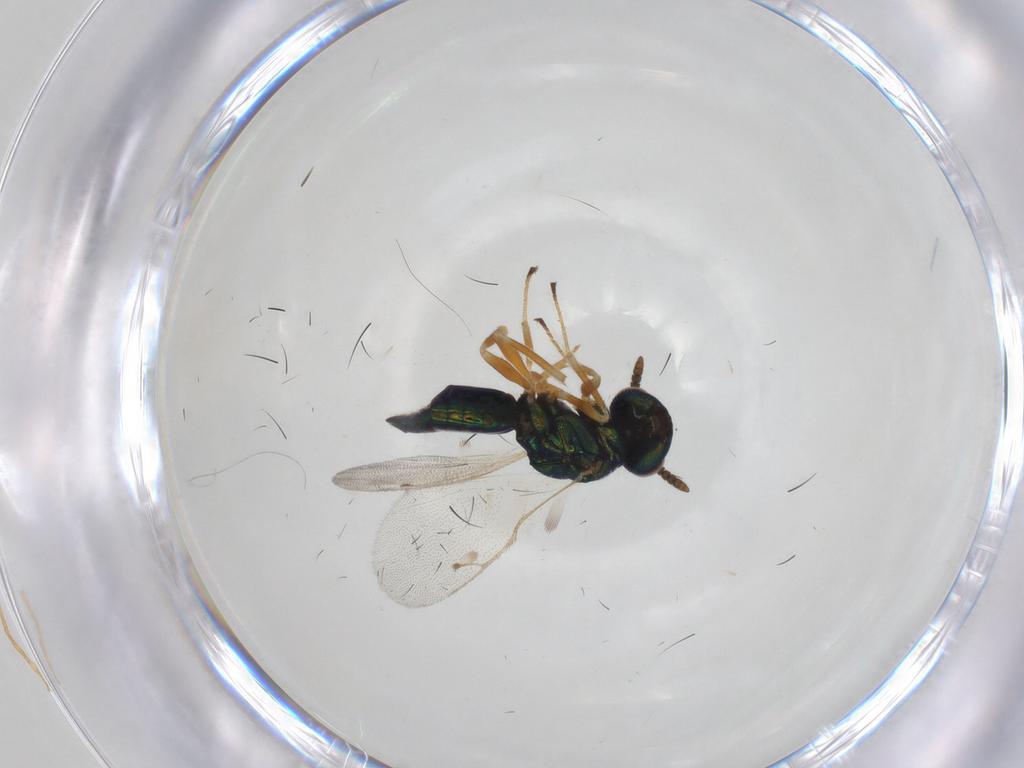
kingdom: Animalia
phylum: Arthropoda
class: Insecta
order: Hymenoptera
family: Pteromalidae
